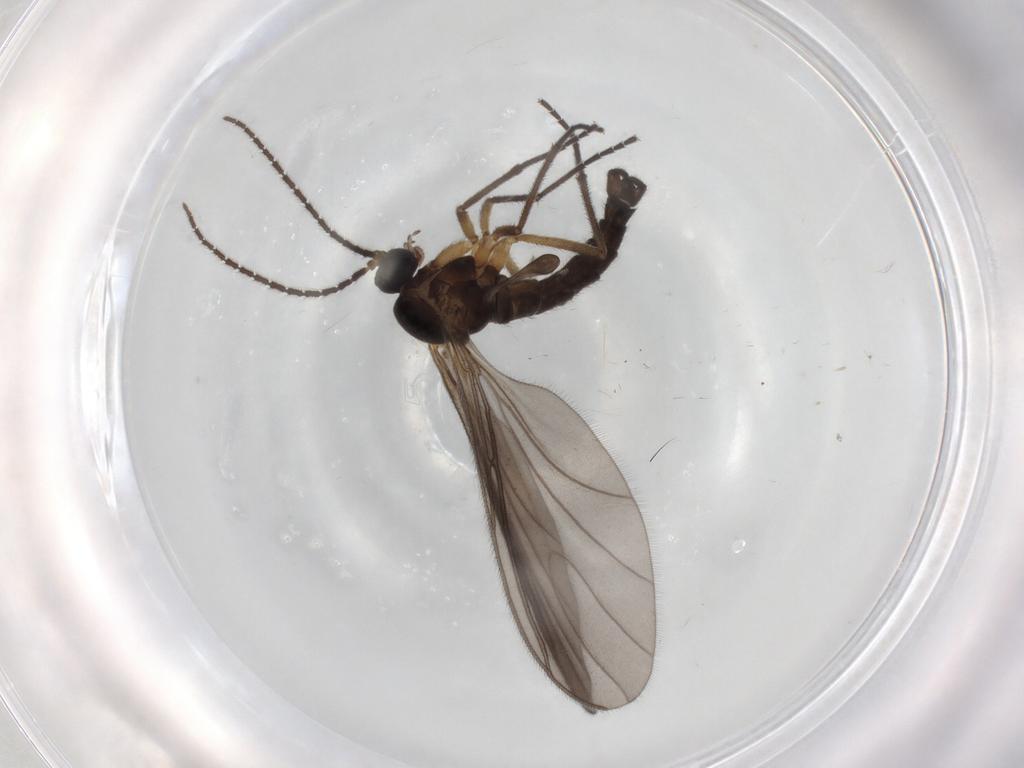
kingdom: Animalia
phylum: Arthropoda
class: Insecta
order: Diptera
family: Sciaridae
